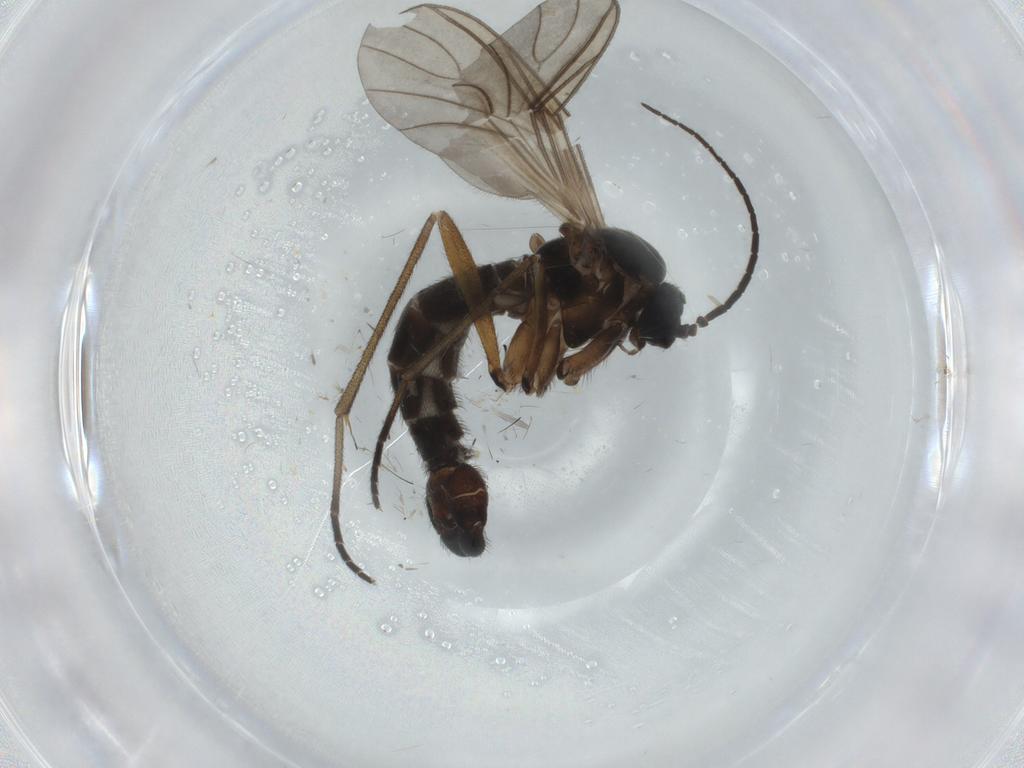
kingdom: Animalia
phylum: Arthropoda
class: Insecta
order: Diptera
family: Sciaridae
